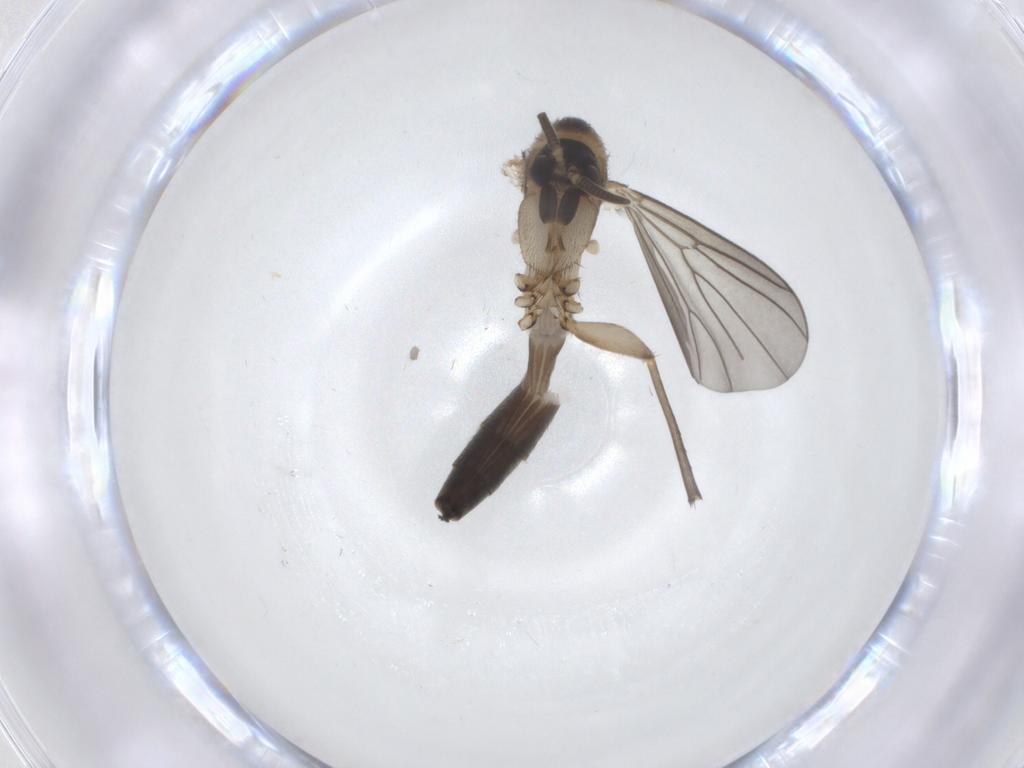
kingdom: Animalia
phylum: Arthropoda
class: Insecta
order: Diptera
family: Mycetophilidae
